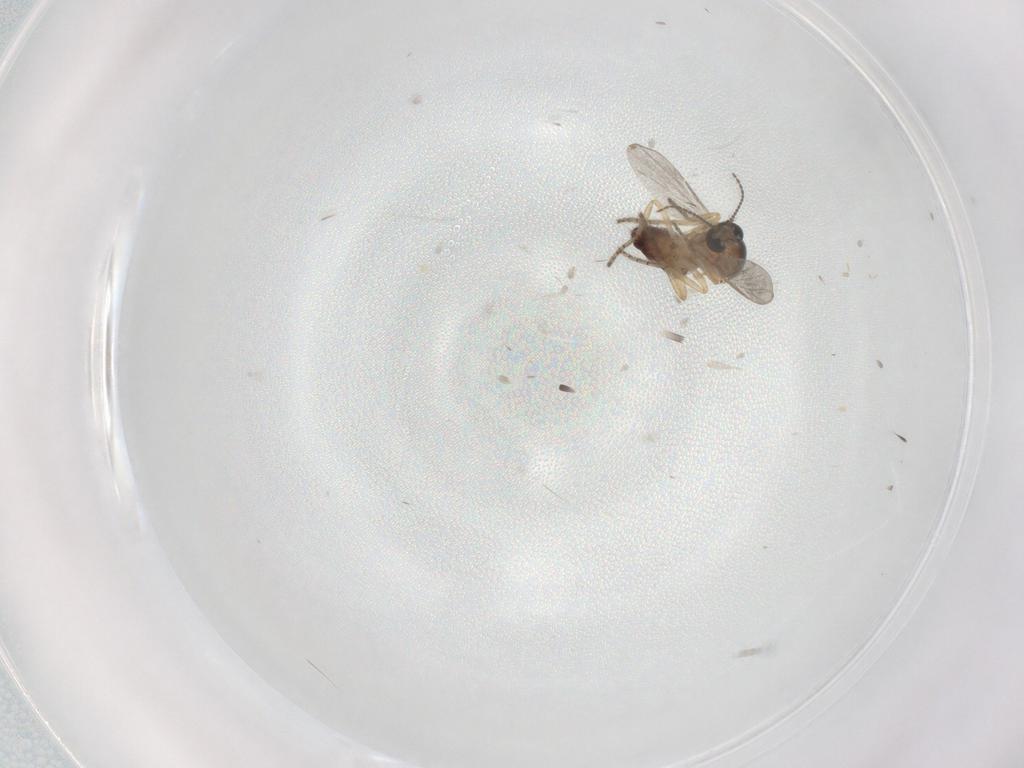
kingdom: Animalia
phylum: Arthropoda
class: Insecta
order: Diptera
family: Ceratopogonidae
